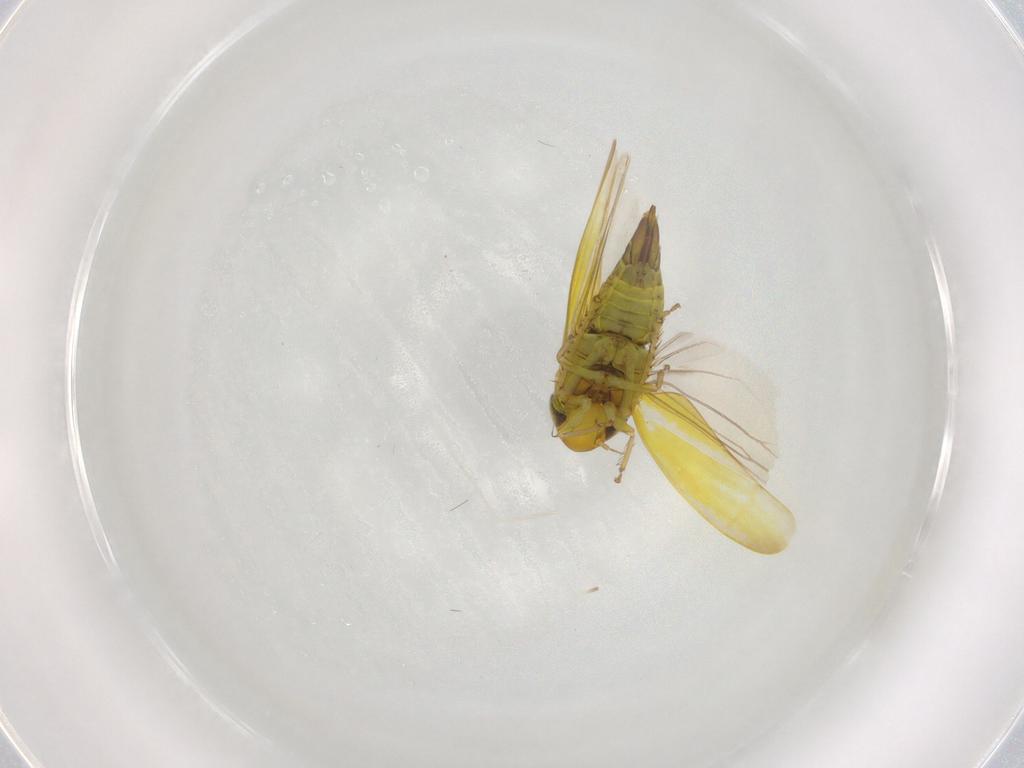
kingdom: Animalia
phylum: Arthropoda
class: Insecta
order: Hemiptera
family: Cicadellidae
